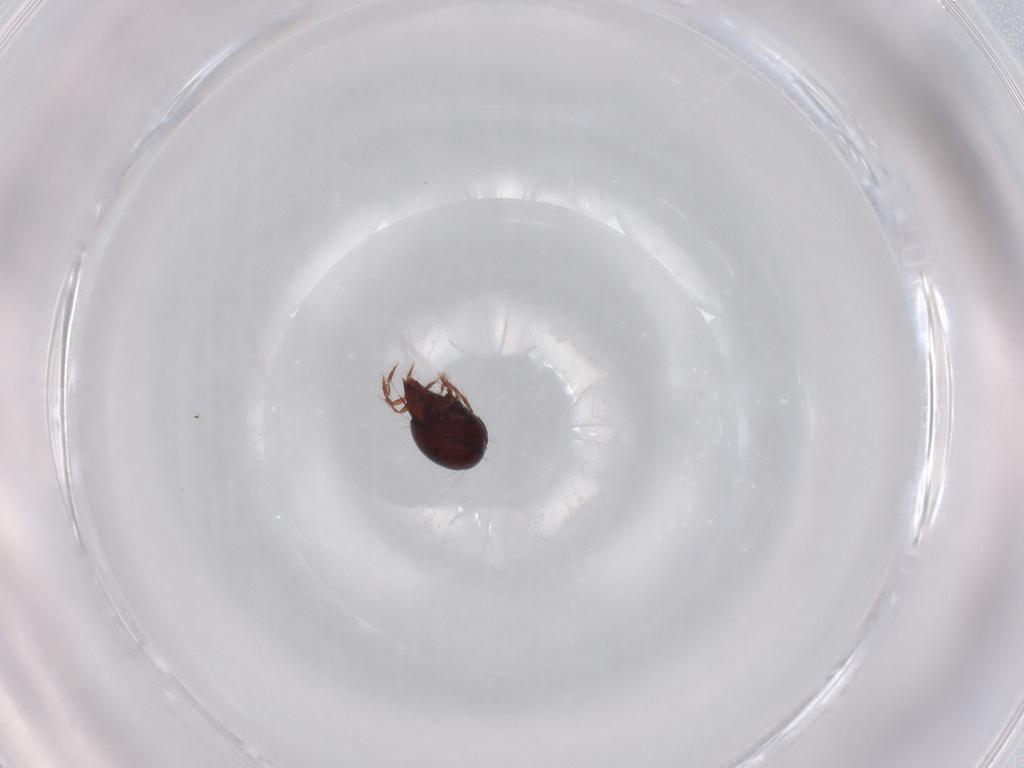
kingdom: Animalia
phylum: Arthropoda
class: Arachnida
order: Sarcoptiformes
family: Ceratoppiidae
